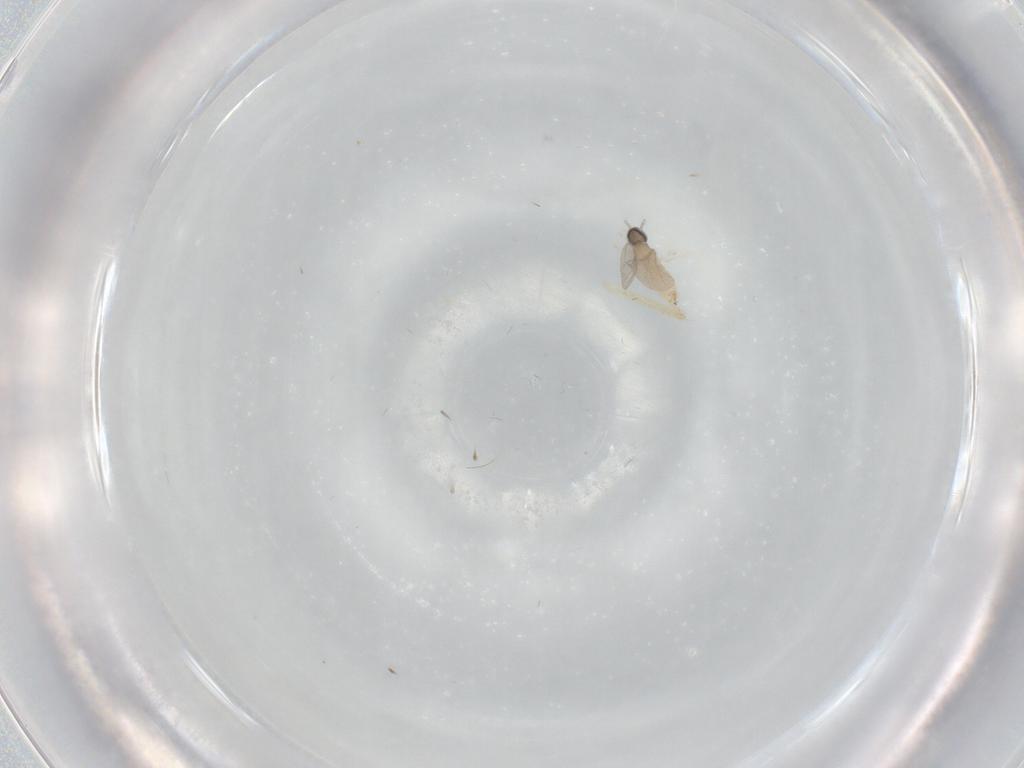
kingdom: Animalia
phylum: Arthropoda
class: Insecta
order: Diptera
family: Cecidomyiidae
